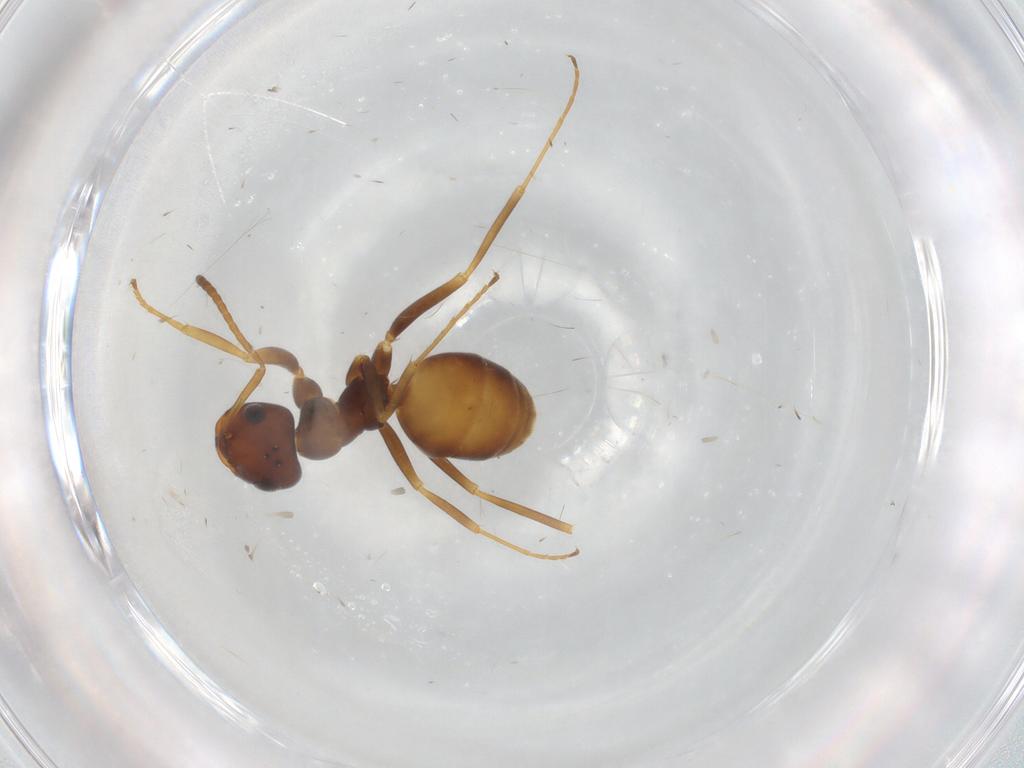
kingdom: Animalia
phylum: Arthropoda
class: Insecta
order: Hymenoptera
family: Formicidae
